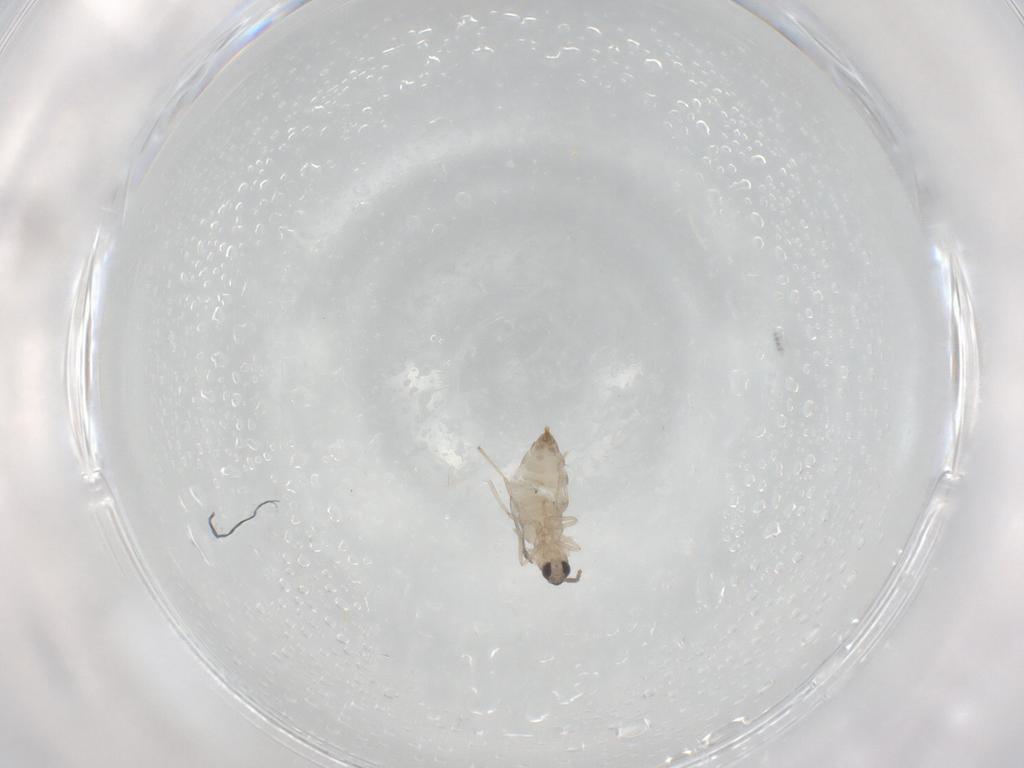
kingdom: Animalia
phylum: Arthropoda
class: Insecta
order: Diptera
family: Cecidomyiidae
